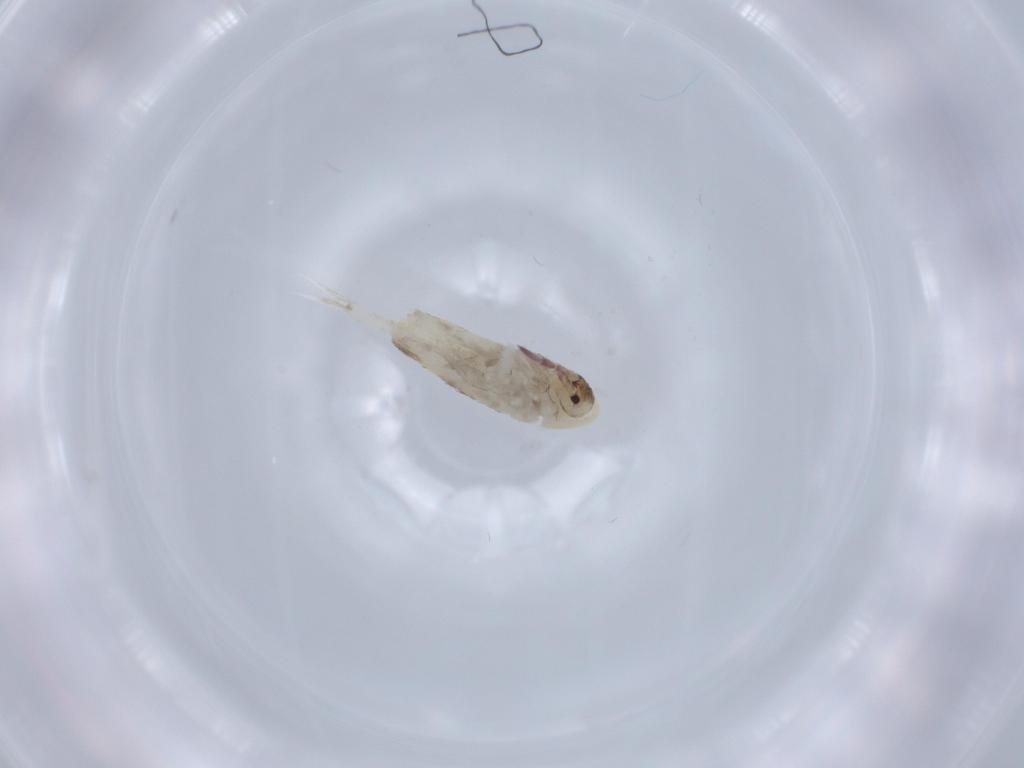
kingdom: Animalia
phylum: Arthropoda
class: Collembola
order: Entomobryomorpha
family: Entomobryidae
